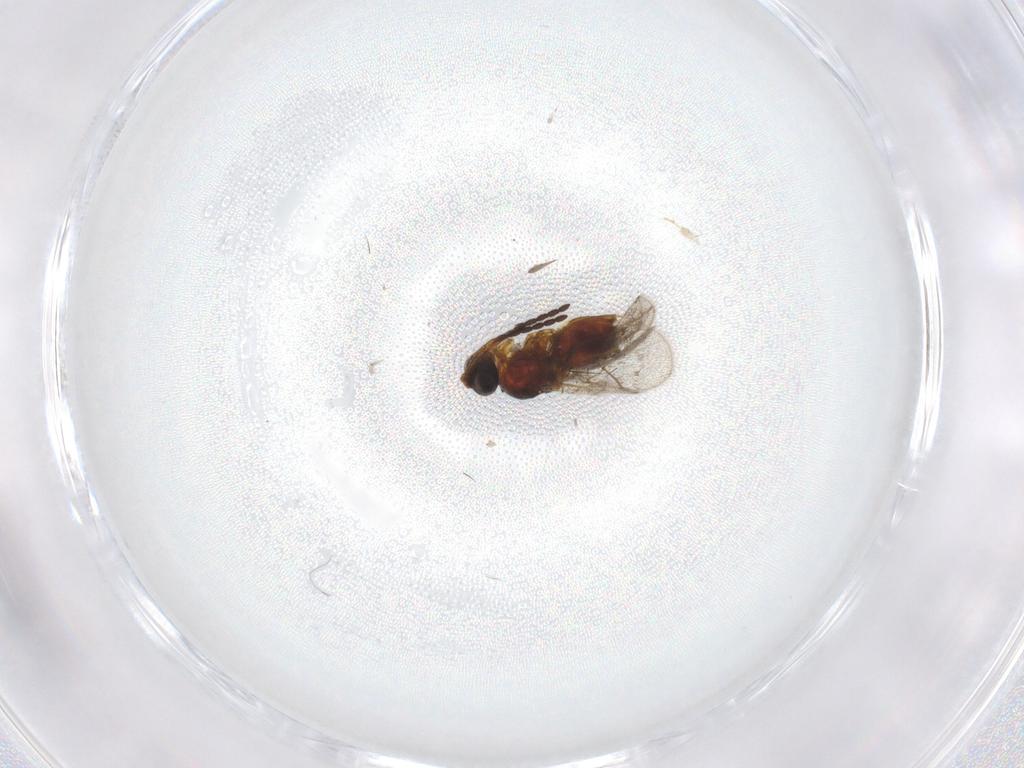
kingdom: Animalia
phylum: Arthropoda
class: Insecta
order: Hymenoptera
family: Figitidae
